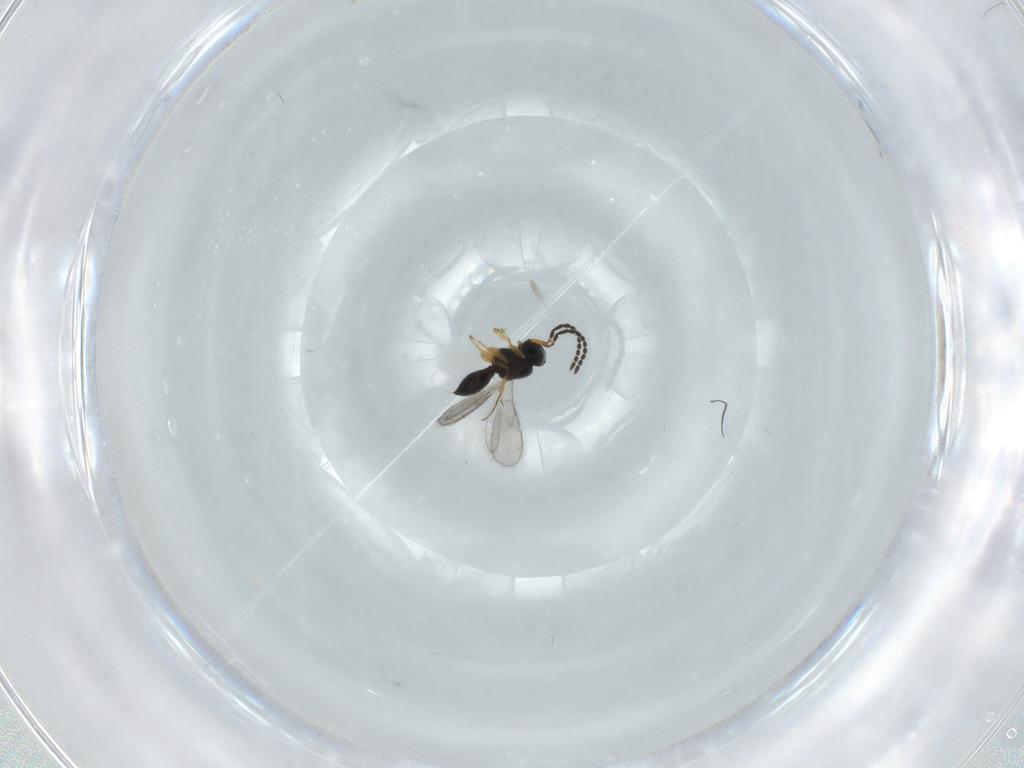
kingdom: Animalia
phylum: Arthropoda
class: Insecta
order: Hymenoptera
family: Scelionidae
